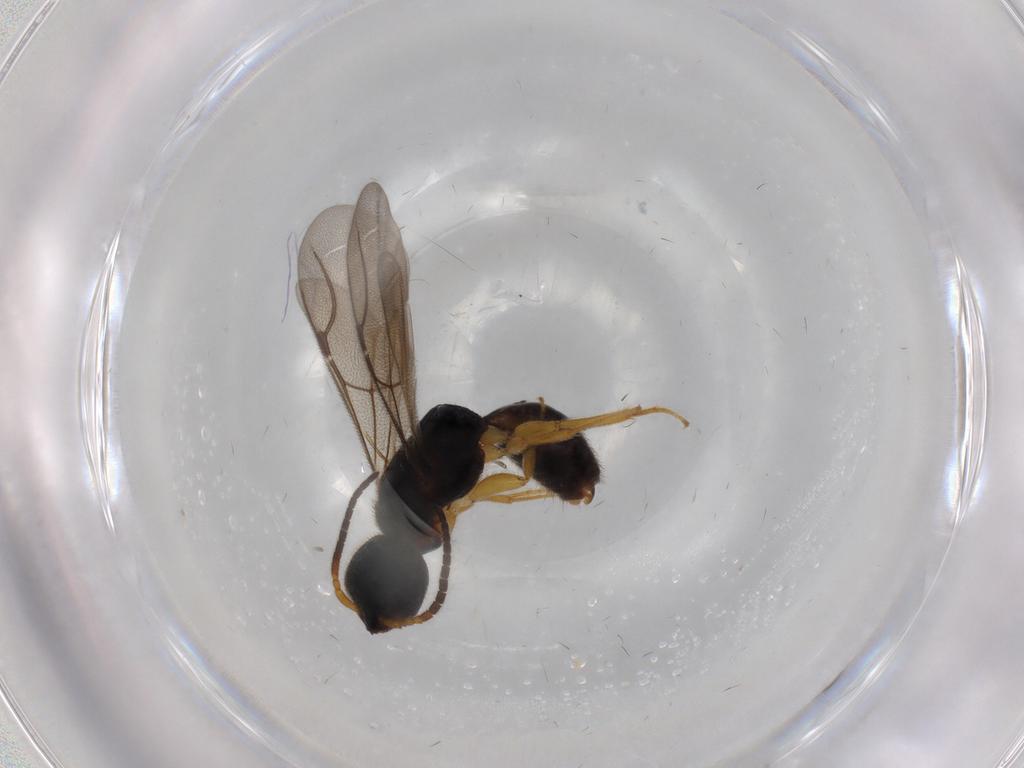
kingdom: Animalia
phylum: Arthropoda
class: Insecta
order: Hymenoptera
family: Bethylidae
